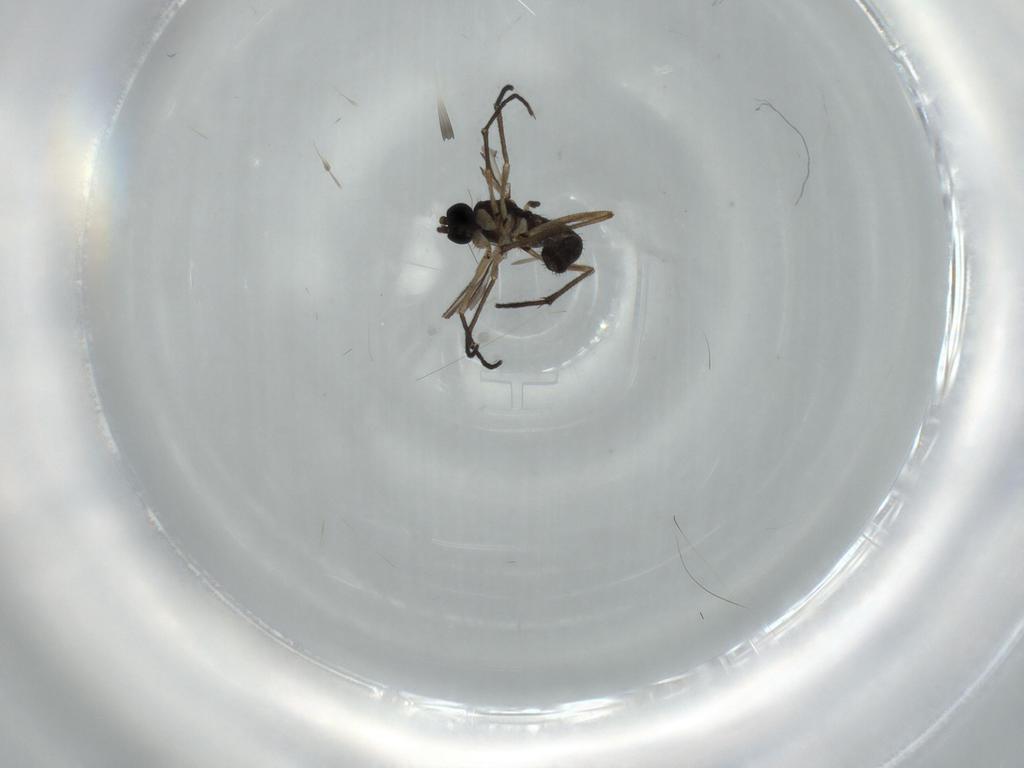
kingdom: Animalia
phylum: Arthropoda
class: Insecta
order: Diptera
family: Sciaridae
